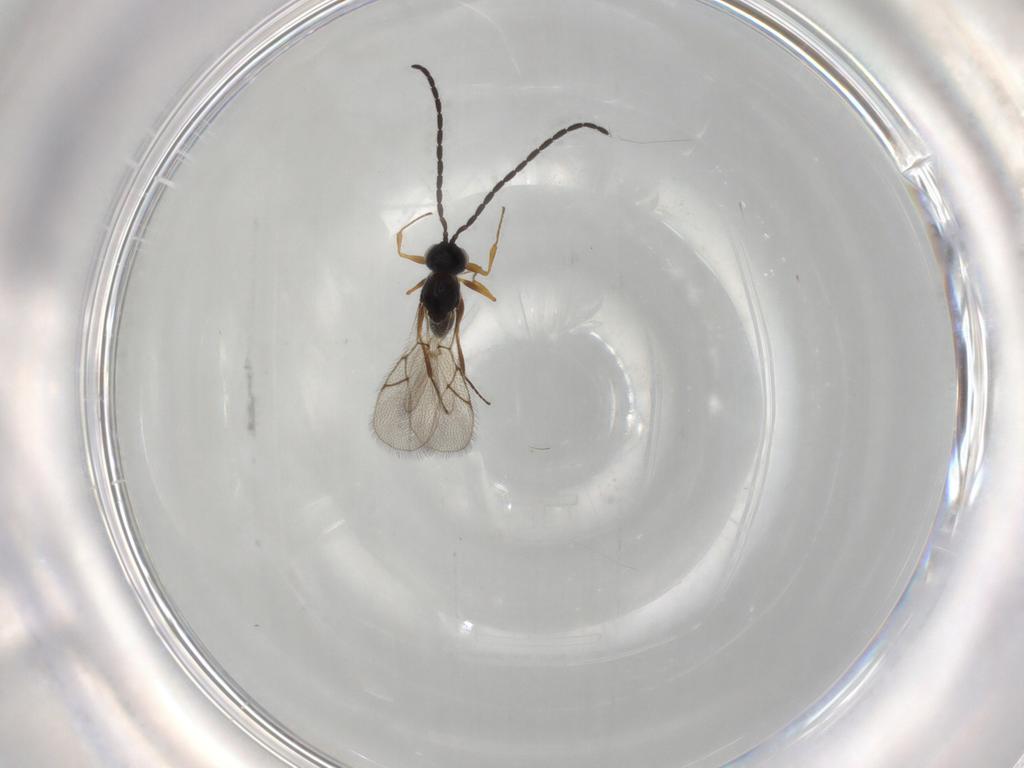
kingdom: Animalia
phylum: Arthropoda
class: Insecta
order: Hymenoptera
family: Figitidae
